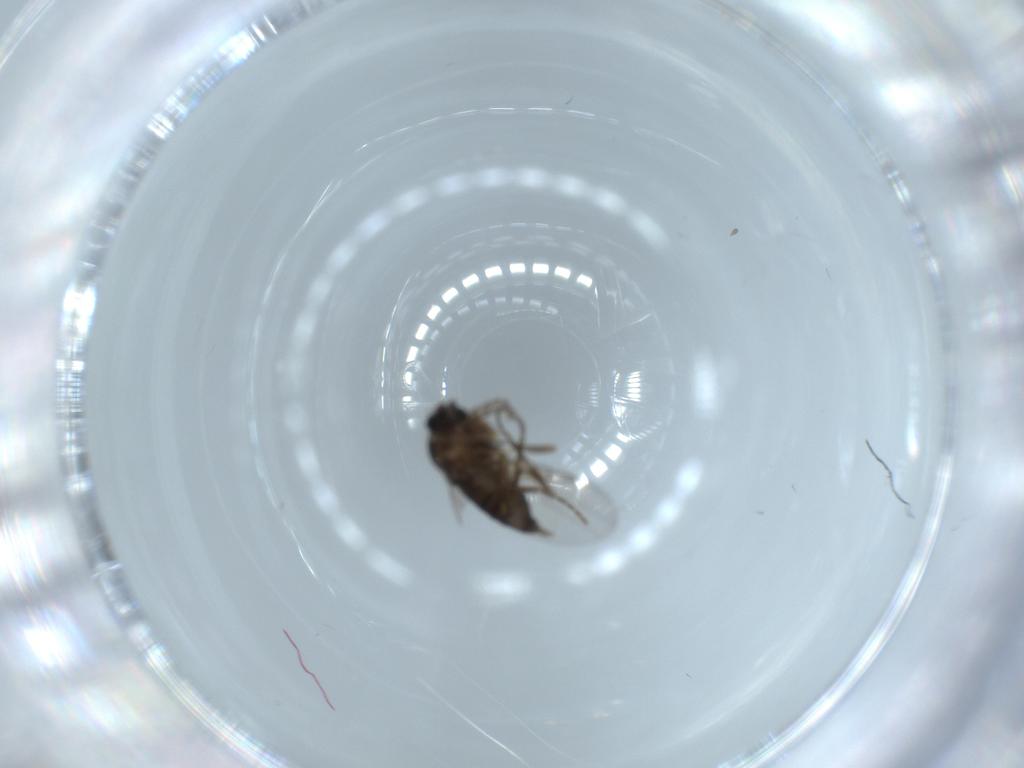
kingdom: Animalia
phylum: Arthropoda
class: Insecta
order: Diptera
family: Phoridae
